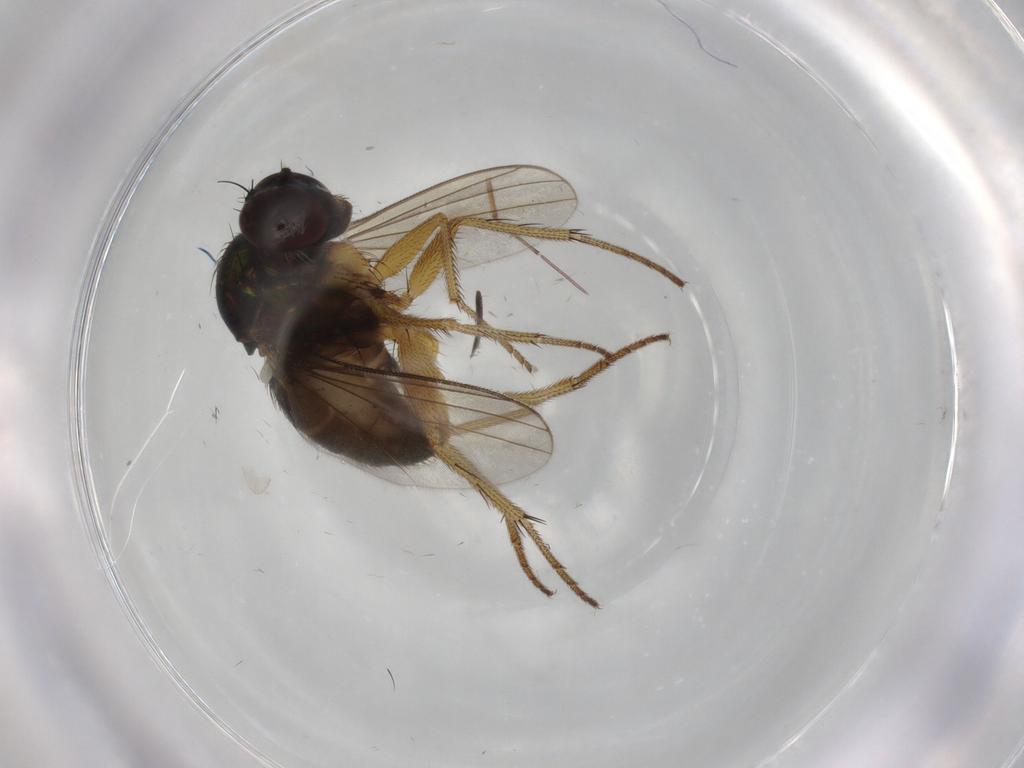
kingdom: Animalia
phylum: Arthropoda
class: Insecta
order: Diptera
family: Dolichopodidae
